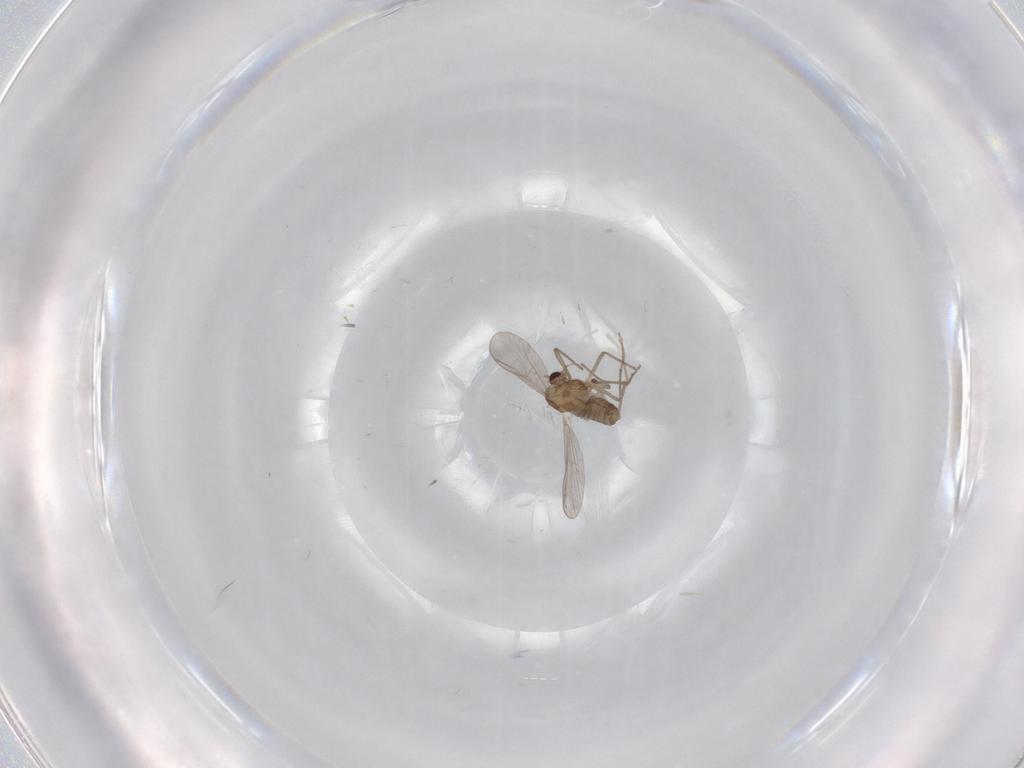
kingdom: Animalia
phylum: Arthropoda
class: Insecta
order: Diptera
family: Chironomidae
